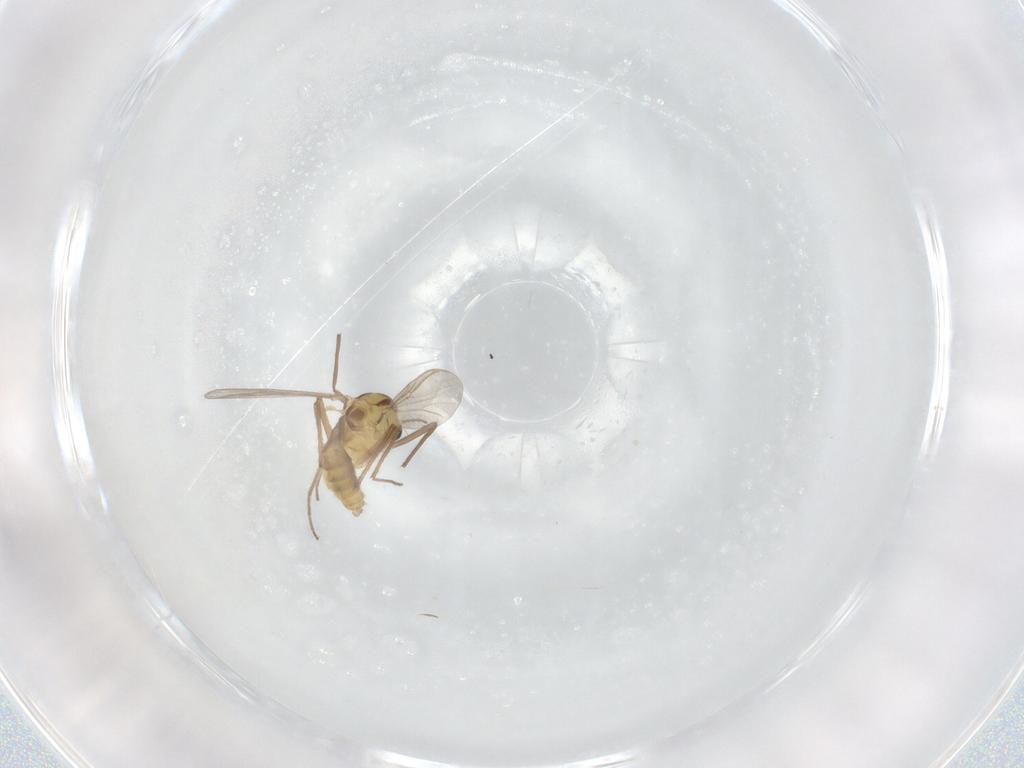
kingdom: Animalia
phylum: Arthropoda
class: Insecta
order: Diptera
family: Chironomidae
